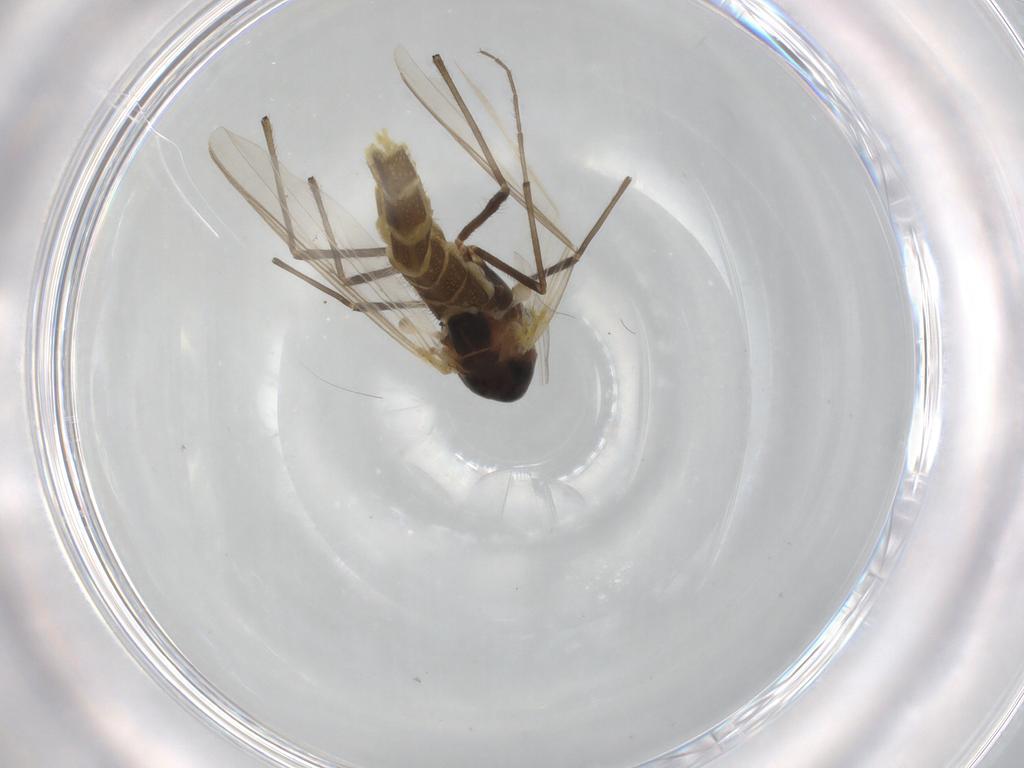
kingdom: Animalia
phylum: Arthropoda
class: Insecta
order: Diptera
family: Chironomidae
